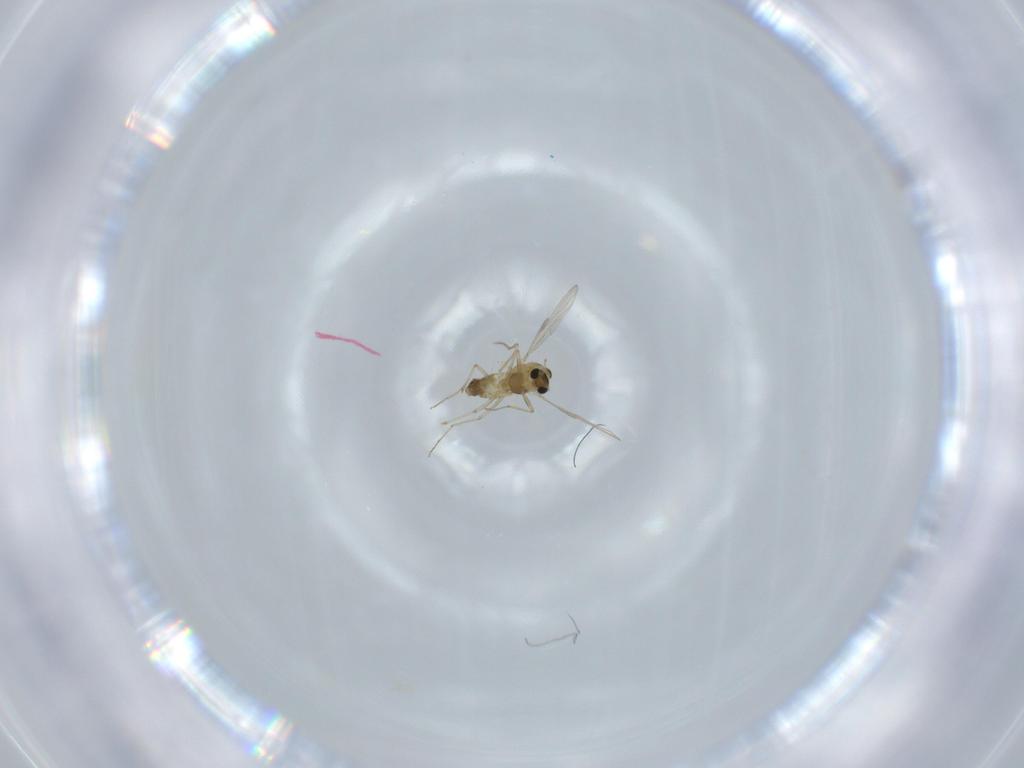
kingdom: Animalia
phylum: Arthropoda
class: Insecta
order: Diptera
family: Chironomidae
